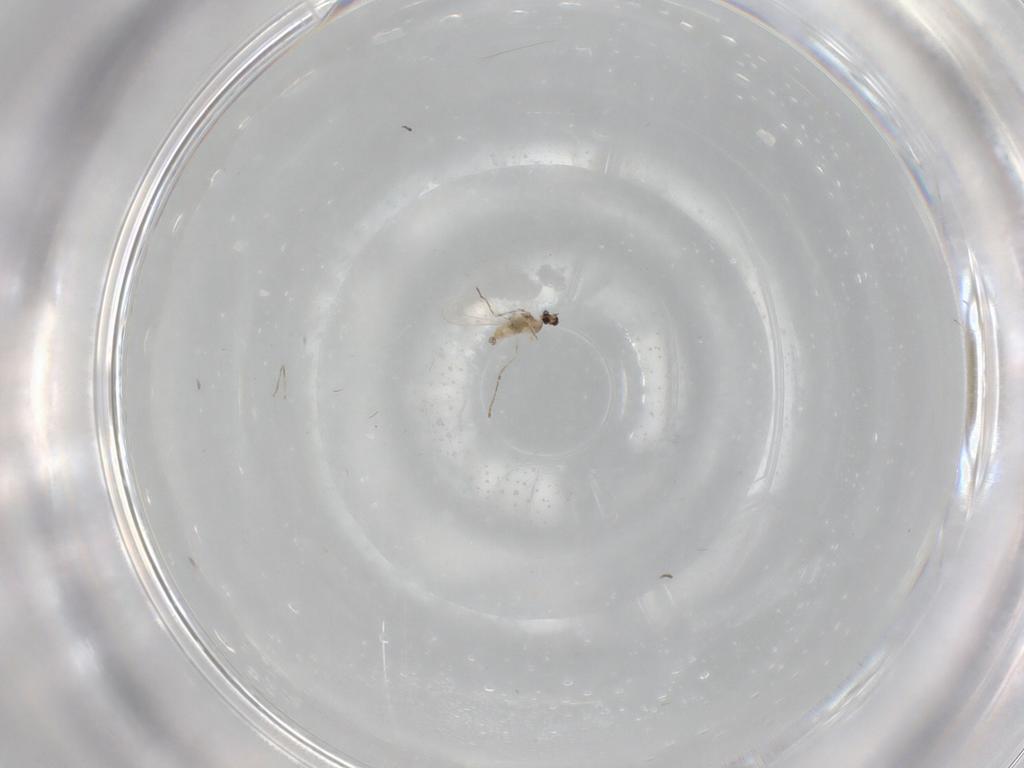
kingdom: Animalia
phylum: Arthropoda
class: Insecta
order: Diptera
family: Cecidomyiidae
